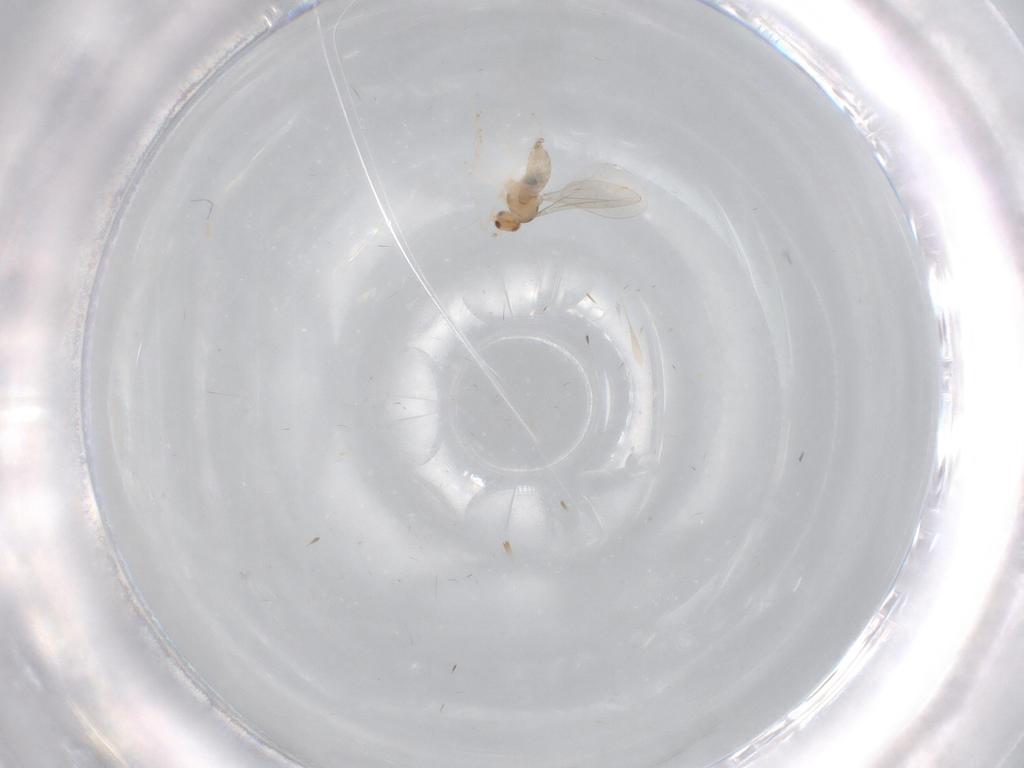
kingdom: Animalia
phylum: Arthropoda
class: Insecta
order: Diptera
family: Cecidomyiidae
